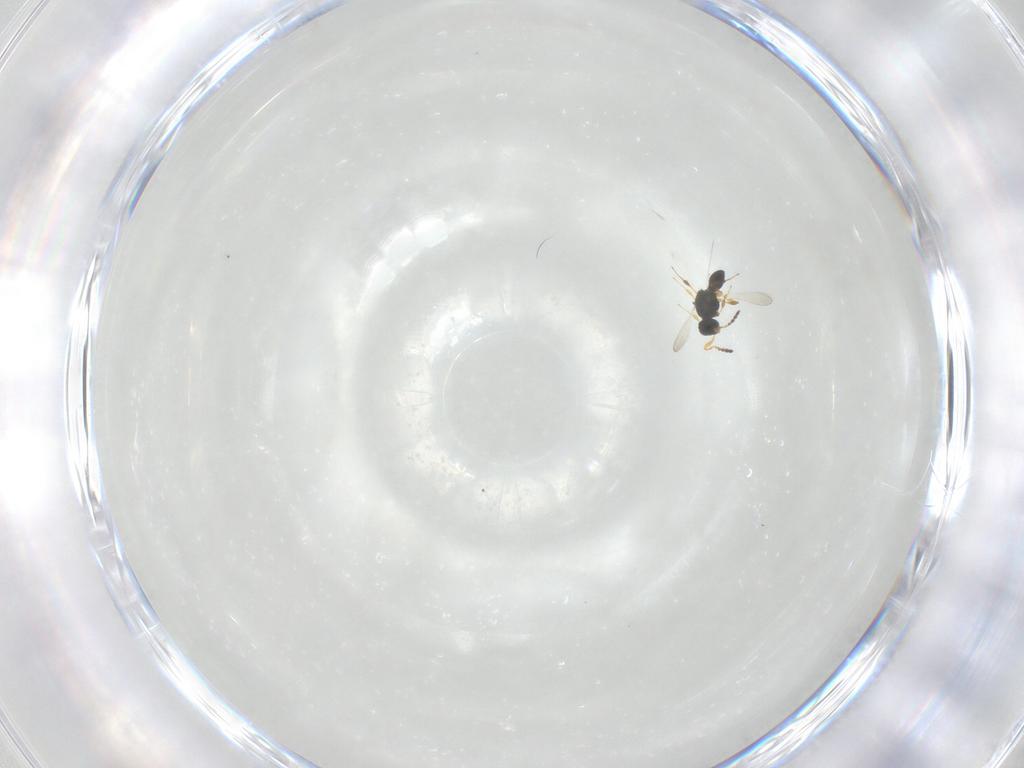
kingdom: Animalia
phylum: Arthropoda
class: Insecta
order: Hymenoptera
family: Platygastridae
